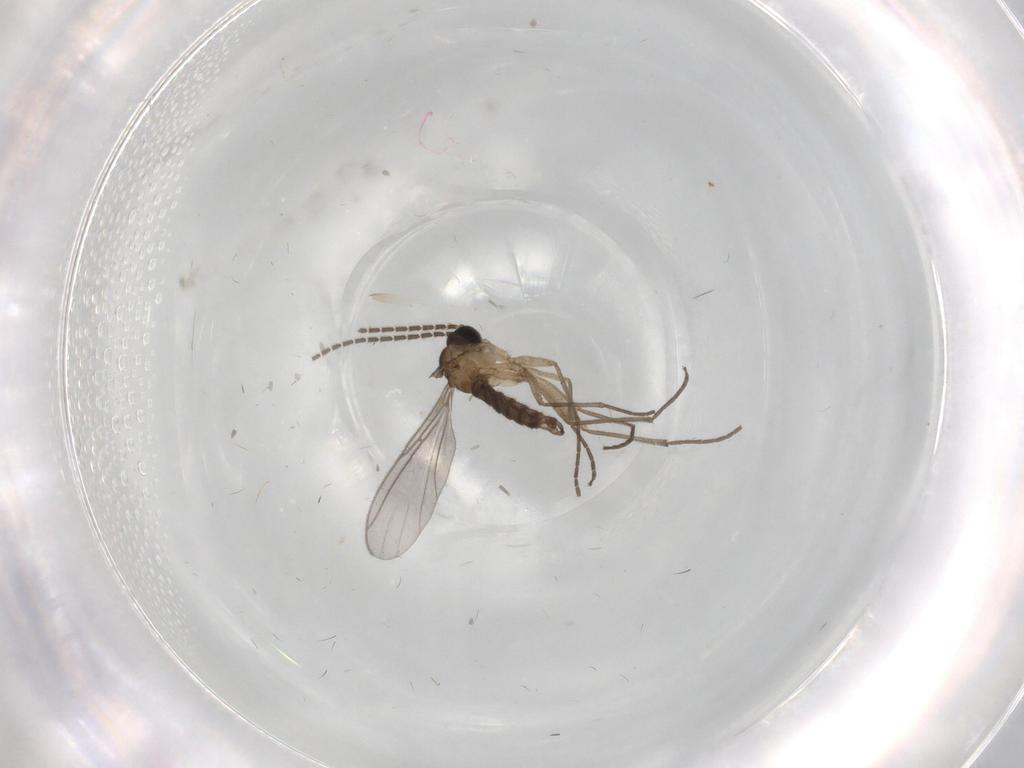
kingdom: Animalia
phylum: Arthropoda
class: Insecta
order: Diptera
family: Sciaridae
